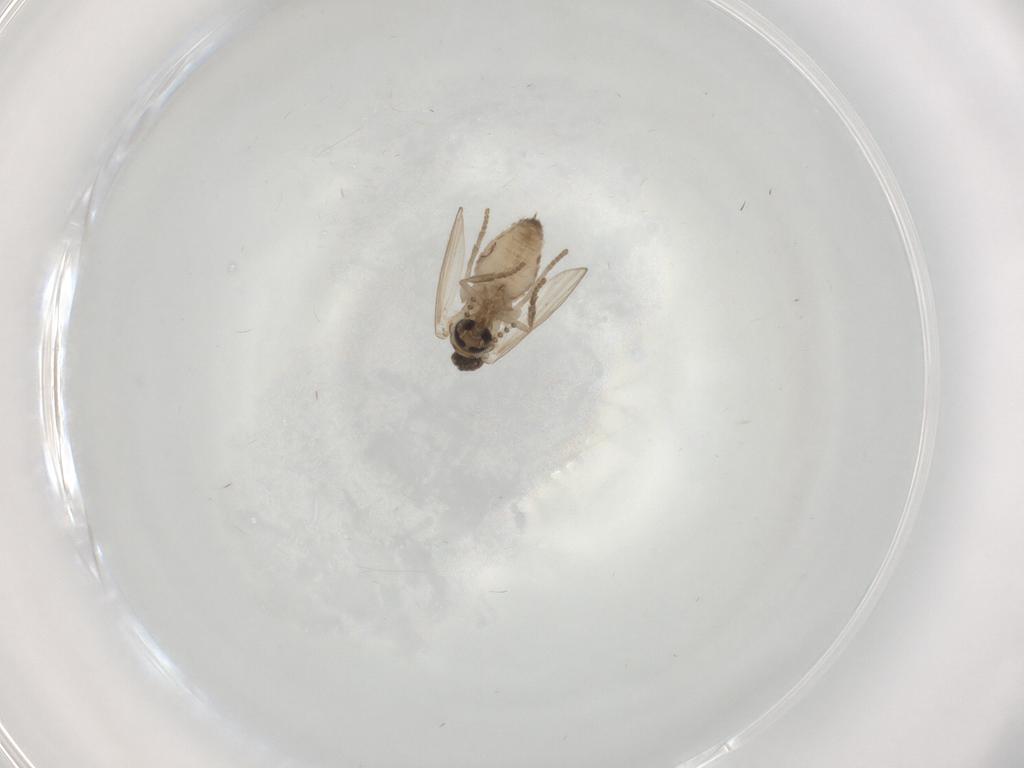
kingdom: Animalia
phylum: Arthropoda
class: Insecta
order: Diptera
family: Psychodidae
